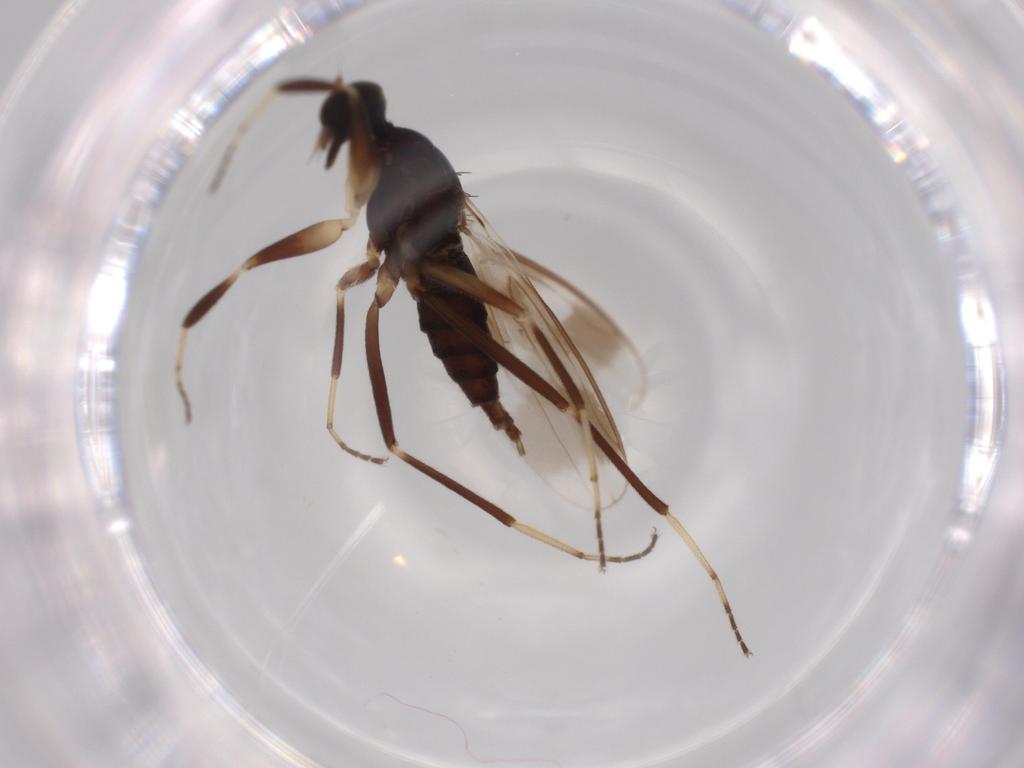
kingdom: Animalia
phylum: Arthropoda
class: Insecta
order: Diptera
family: Hybotidae
